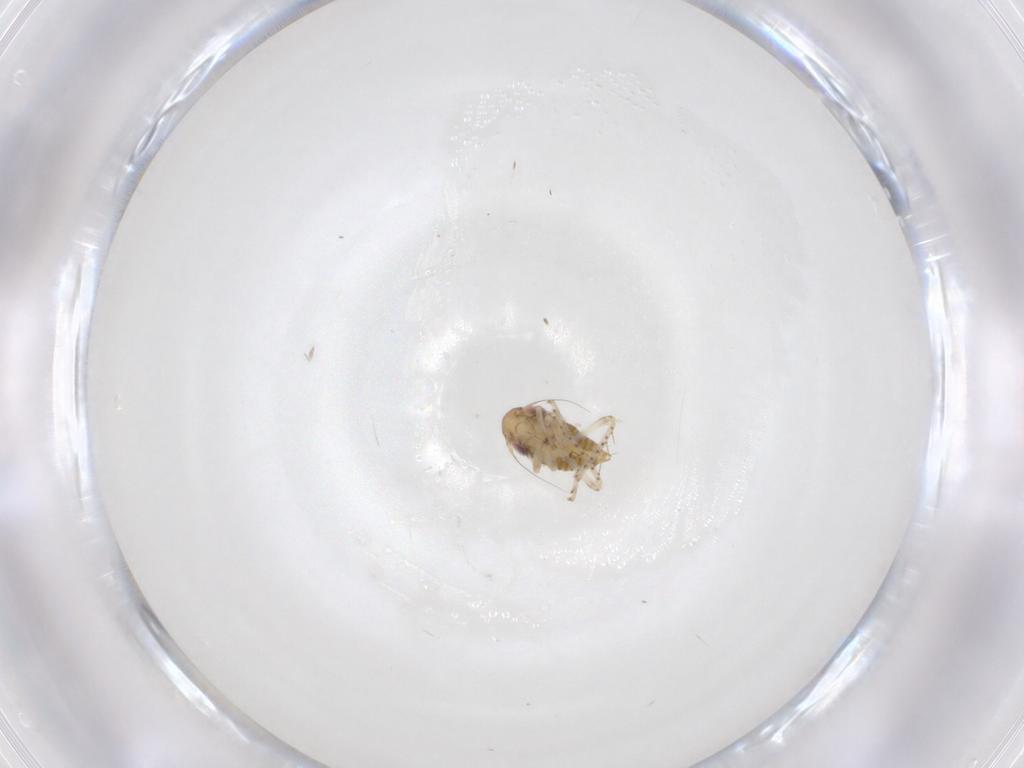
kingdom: Animalia
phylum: Arthropoda
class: Insecta
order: Hemiptera
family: Cicadellidae
